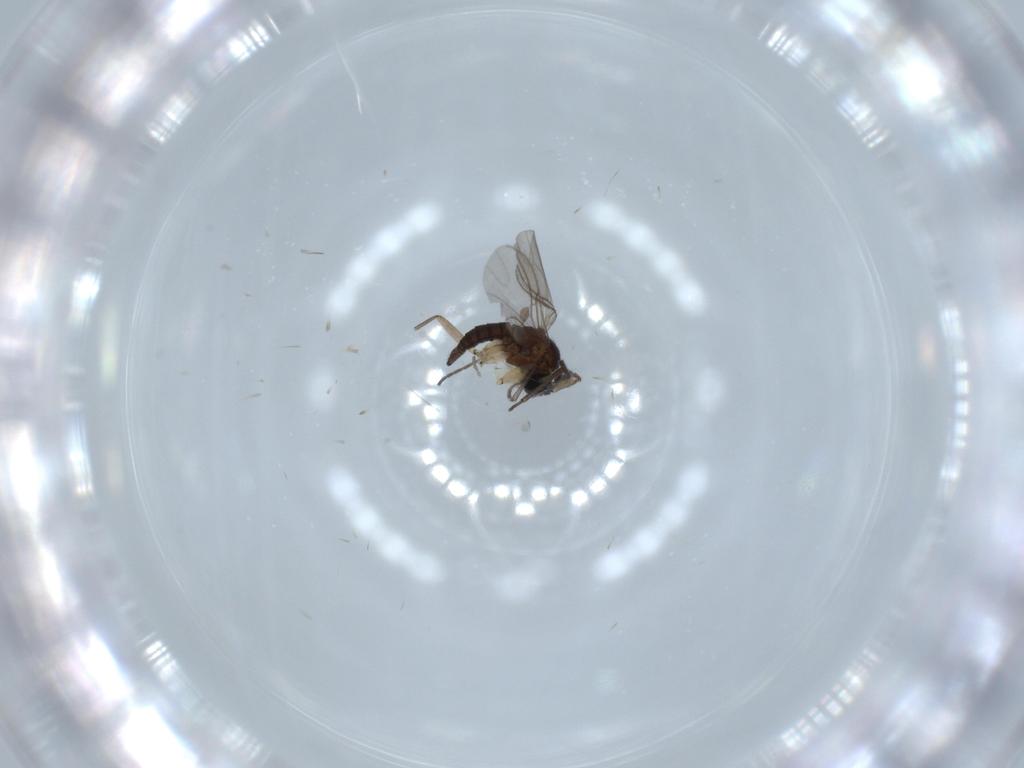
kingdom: Animalia
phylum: Arthropoda
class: Insecta
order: Diptera
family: Sciaridae
